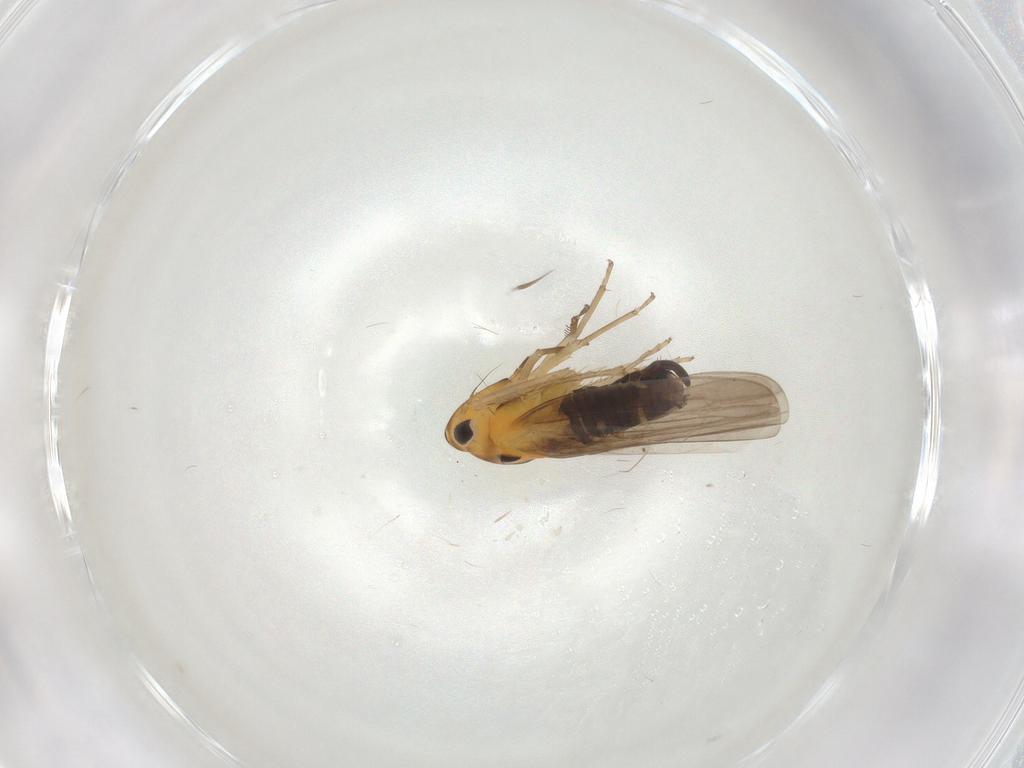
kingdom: Animalia
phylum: Arthropoda
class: Insecta
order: Hemiptera
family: Cicadellidae
